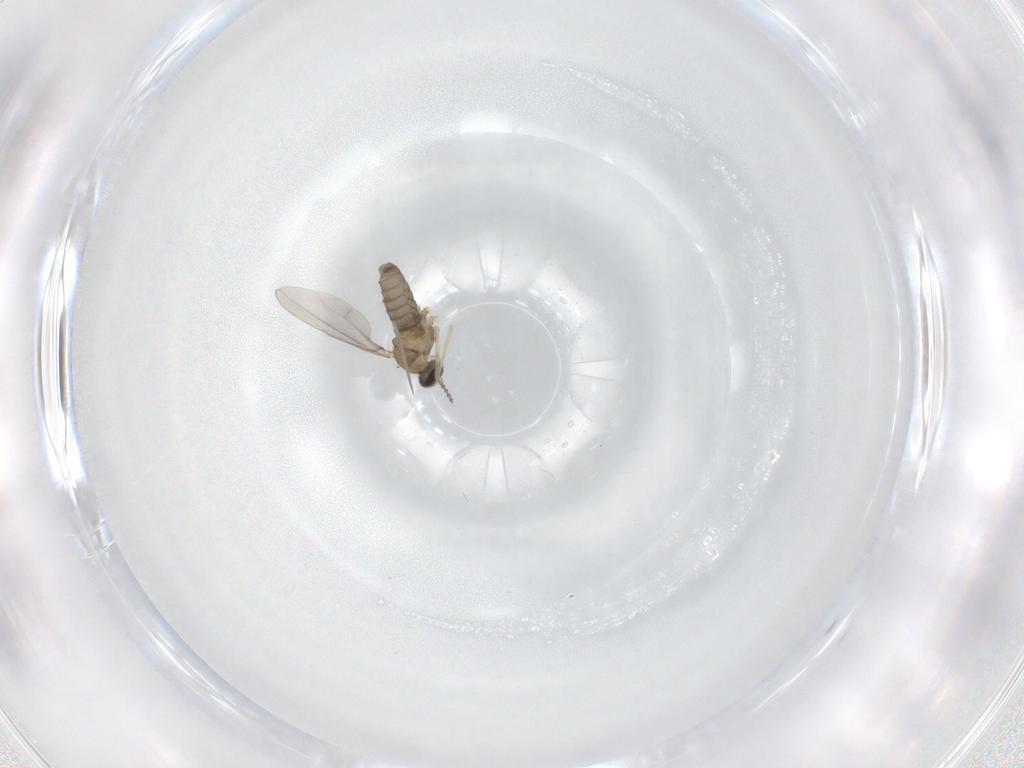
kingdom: Animalia
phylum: Arthropoda
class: Insecta
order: Diptera
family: Cecidomyiidae
